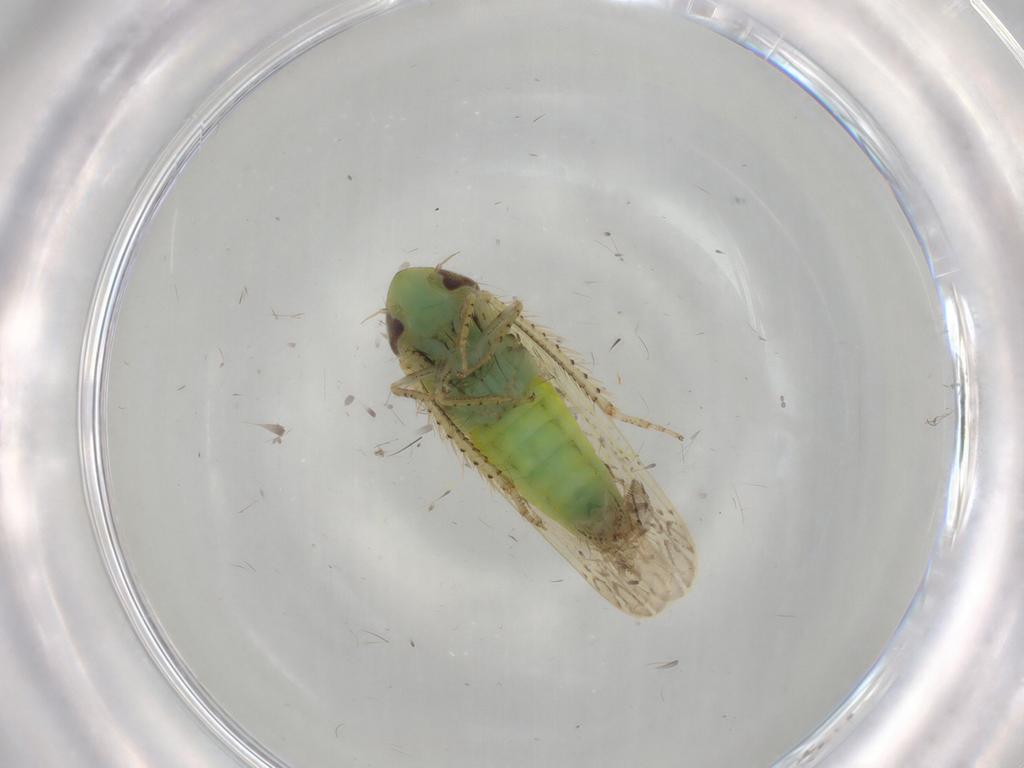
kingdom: Animalia
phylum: Arthropoda
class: Insecta
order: Hemiptera
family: Cicadellidae
